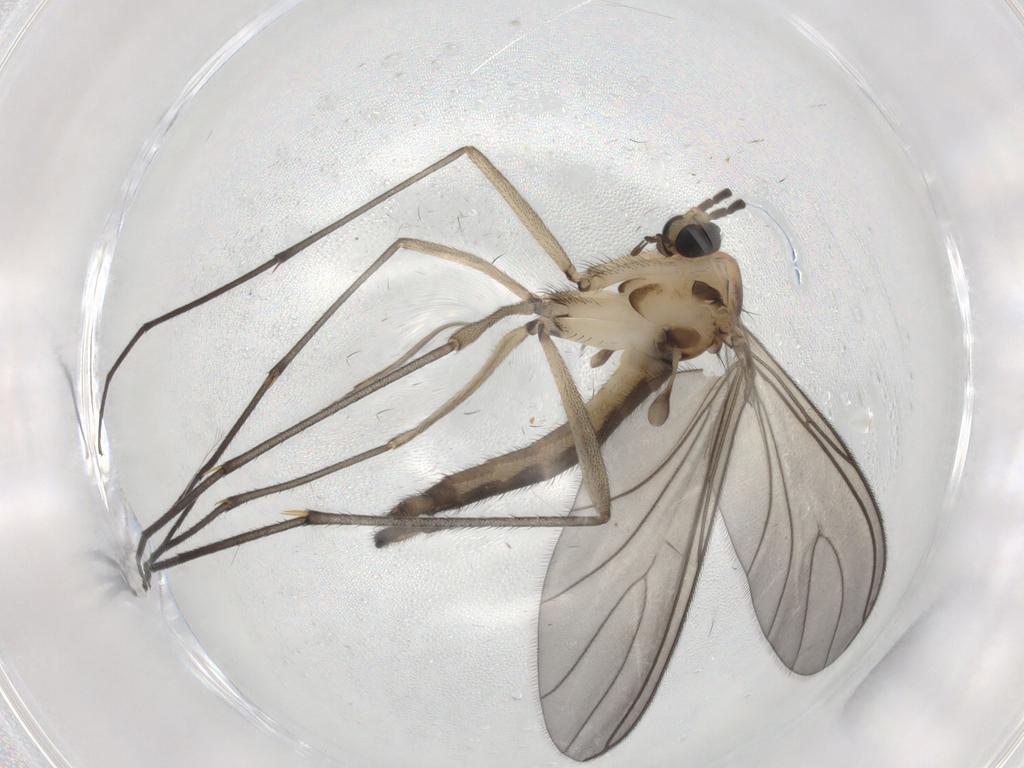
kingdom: Animalia
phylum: Arthropoda
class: Insecta
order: Diptera
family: Sciaridae
